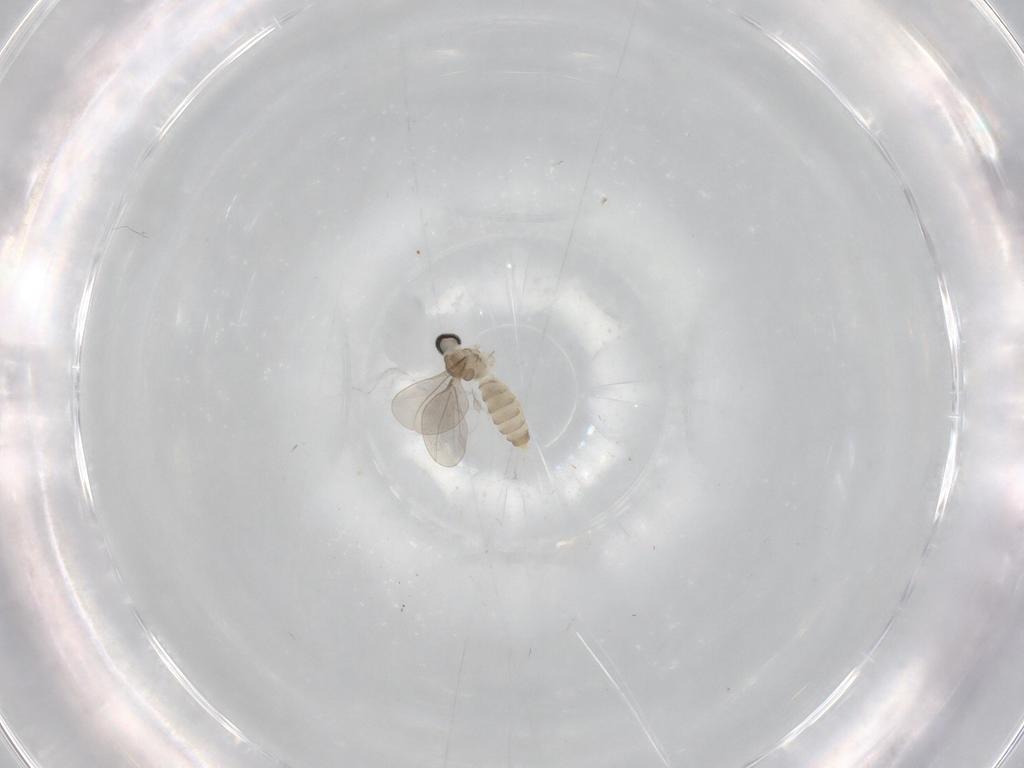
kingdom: Animalia
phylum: Arthropoda
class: Insecta
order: Diptera
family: Cecidomyiidae
